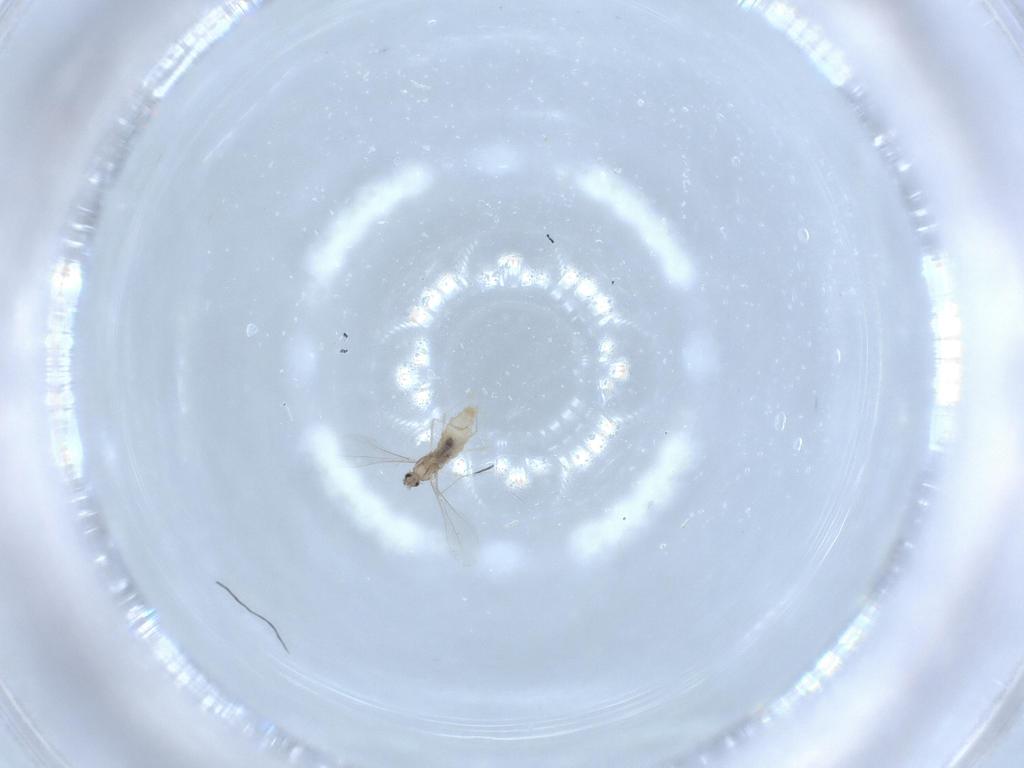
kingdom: Animalia
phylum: Arthropoda
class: Insecta
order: Diptera
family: Cecidomyiidae
